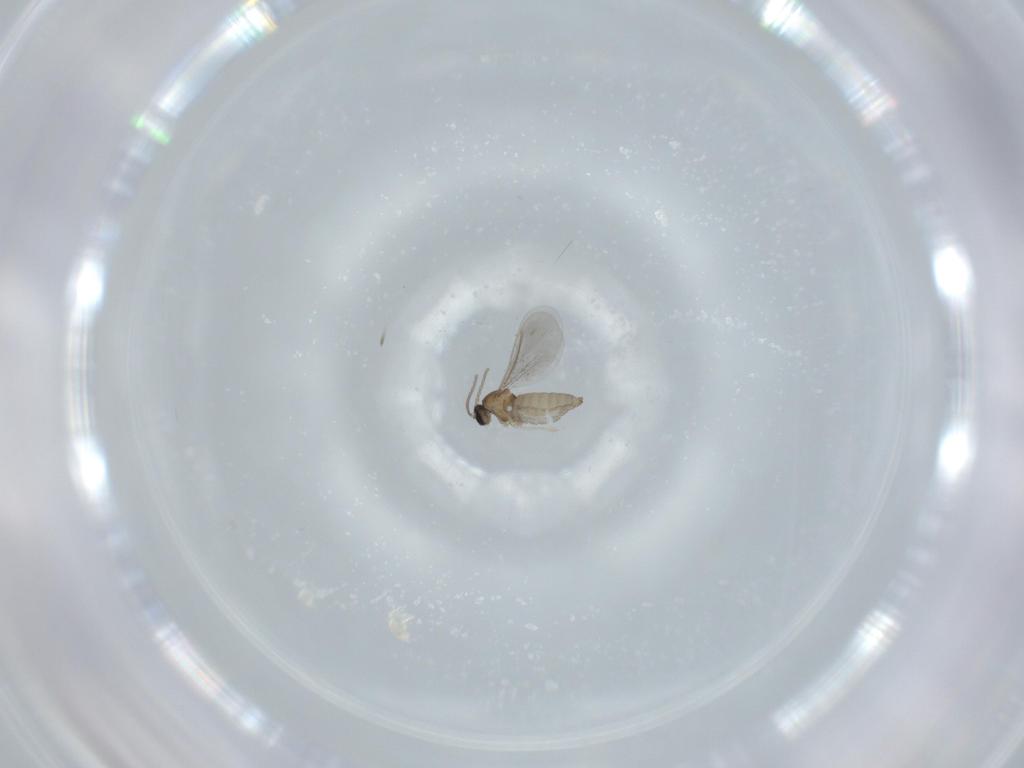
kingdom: Animalia
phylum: Arthropoda
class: Insecta
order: Diptera
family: Cecidomyiidae
